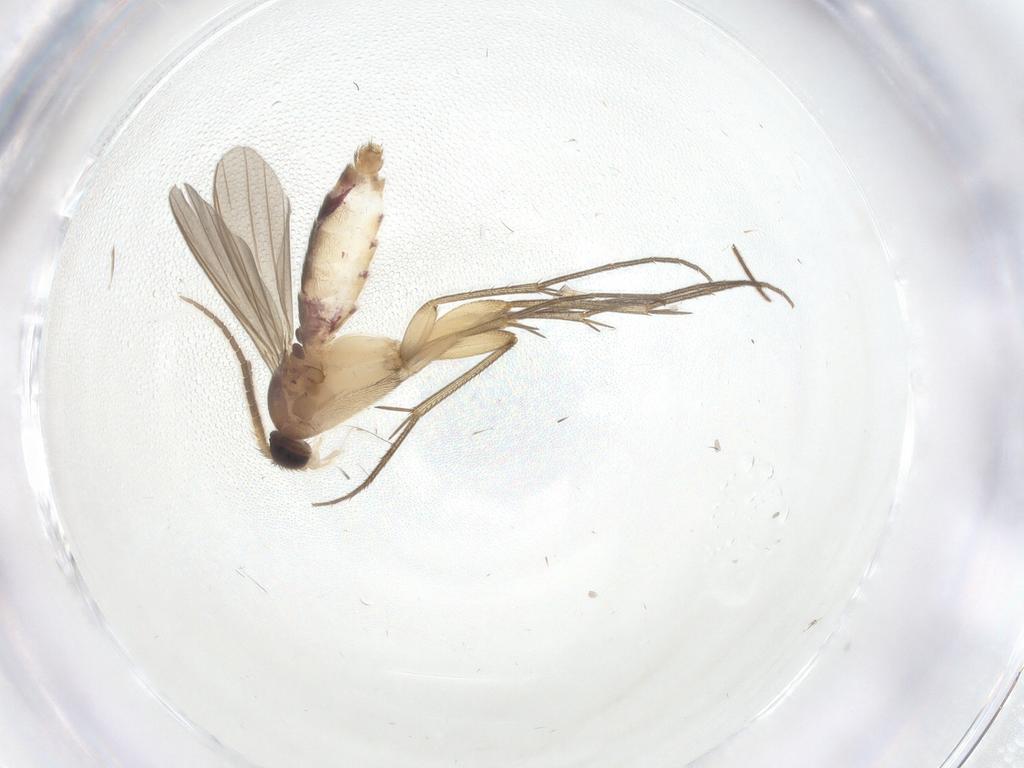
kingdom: Animalia
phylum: Arthropoda
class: Insecta
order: Diptera
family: Mycetophilidae
